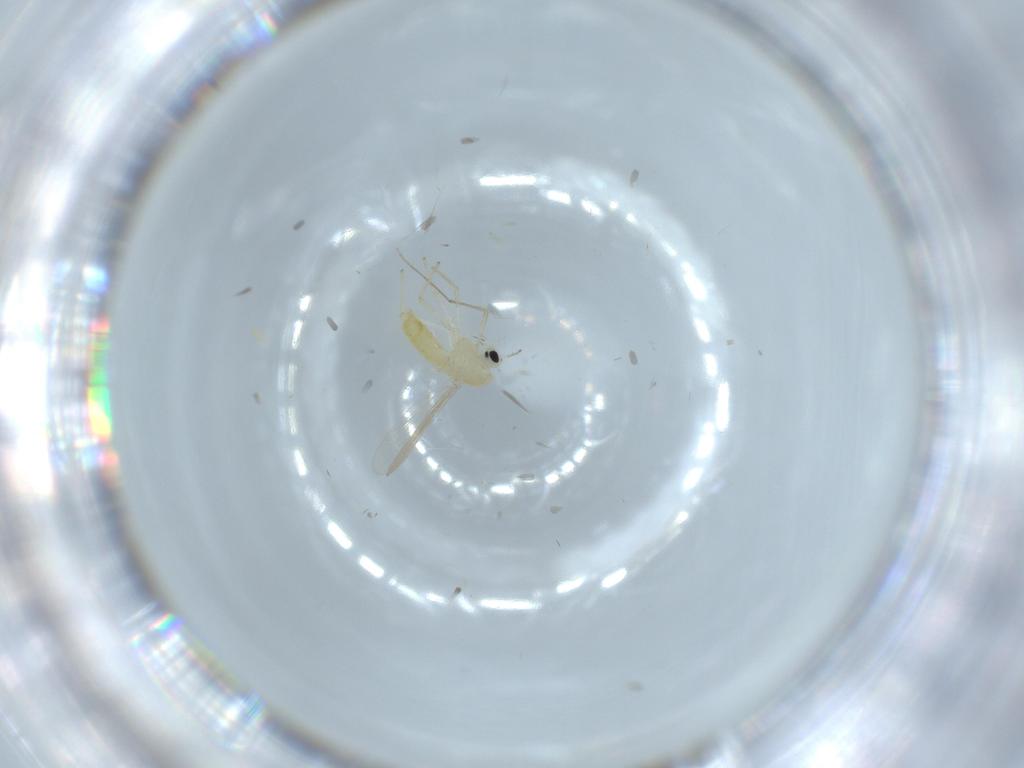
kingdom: Animalia
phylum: Arthropoda
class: Insecta
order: Diptera
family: Chironomidae
